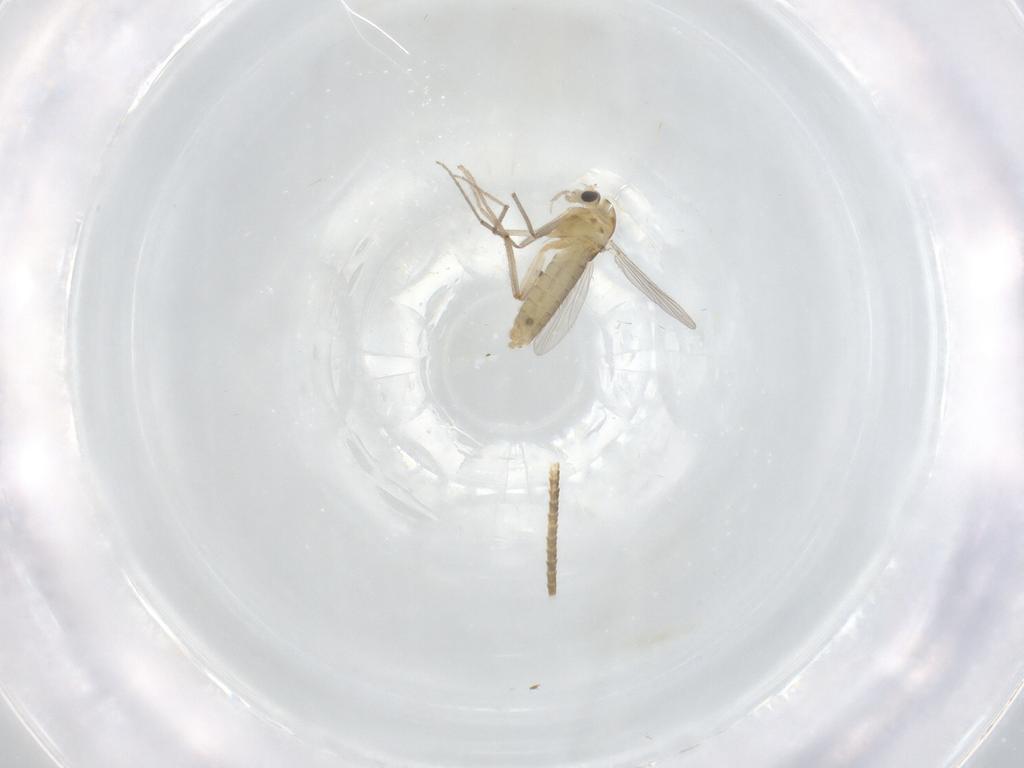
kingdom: Animalia
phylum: Arthropoda
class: Insecta
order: Diptera
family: Chironomidae
